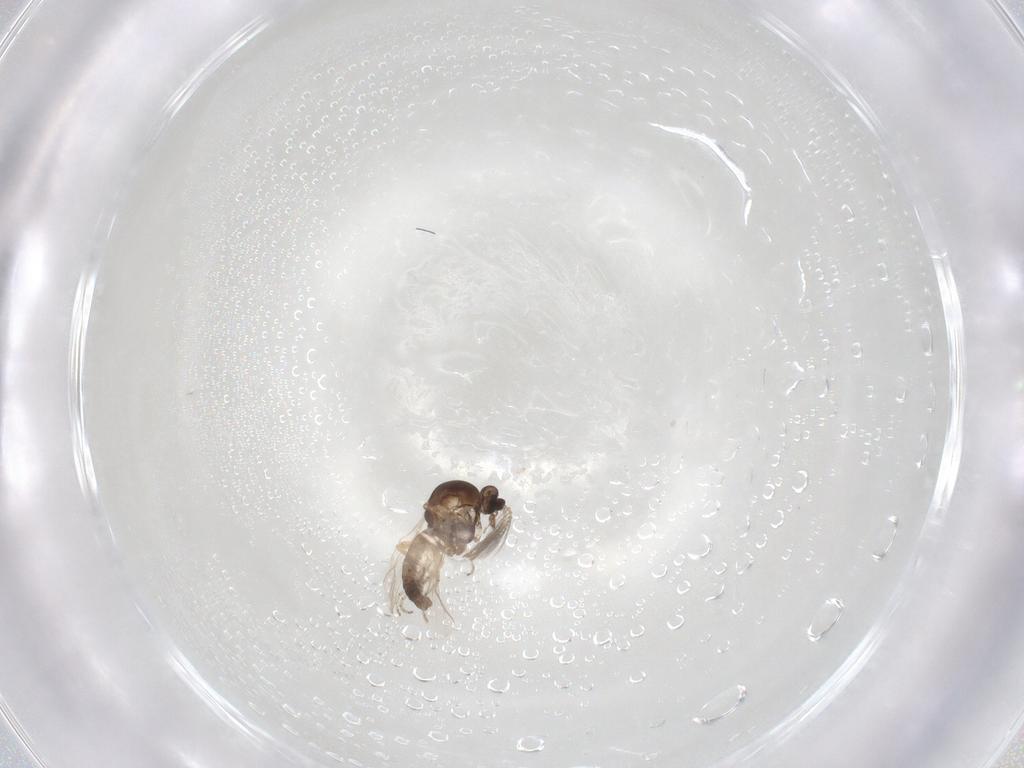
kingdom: Animalia
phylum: Arthropoda
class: Insecta
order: Diptera
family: Ceratopogonidae
